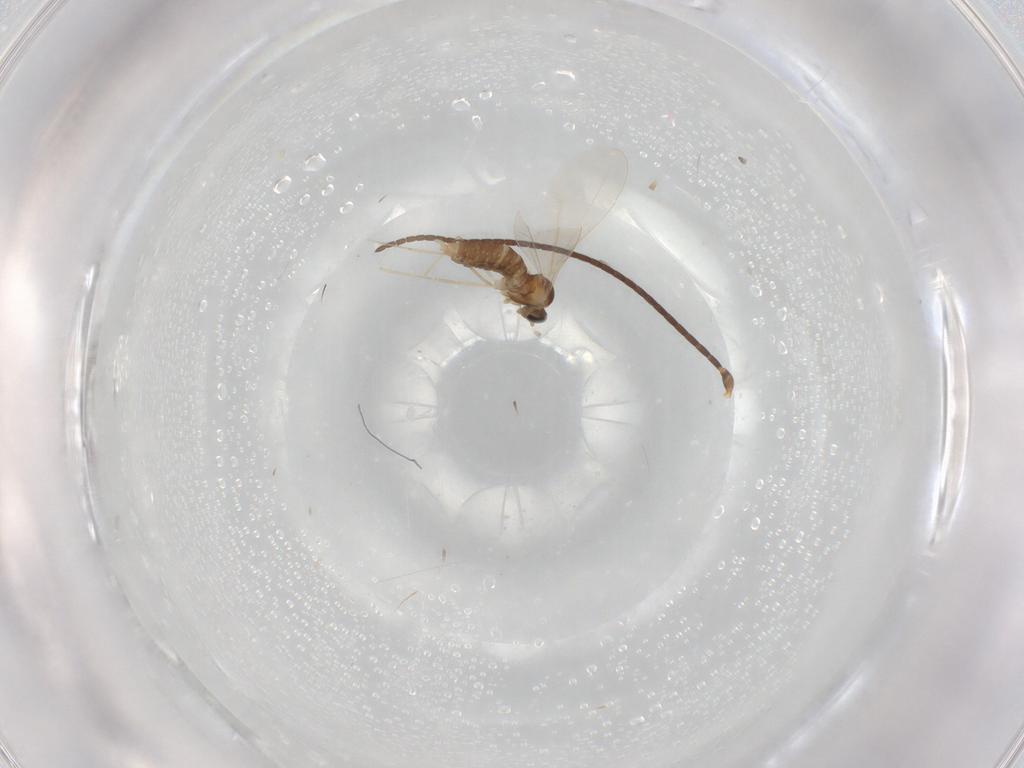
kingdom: Animalia
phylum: Arthropoda
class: Insecta
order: Diptera
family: Cecidomyiidae
